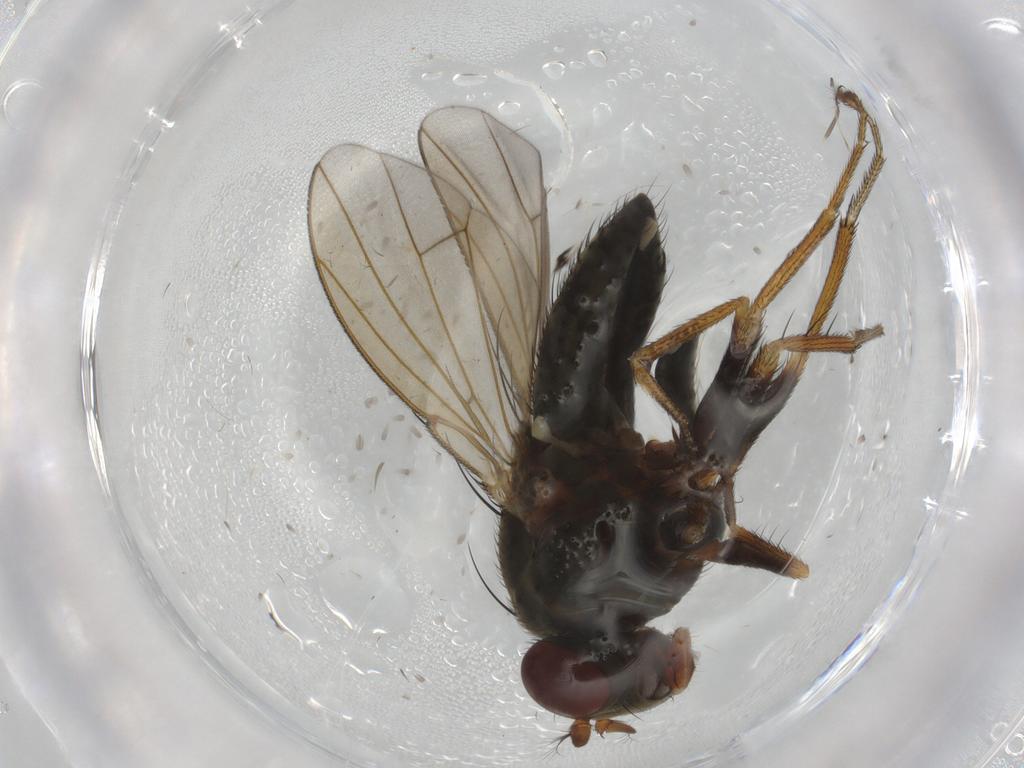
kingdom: Animalia
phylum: Arthropoda
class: Insecta
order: Diptera
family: Ephydridae
